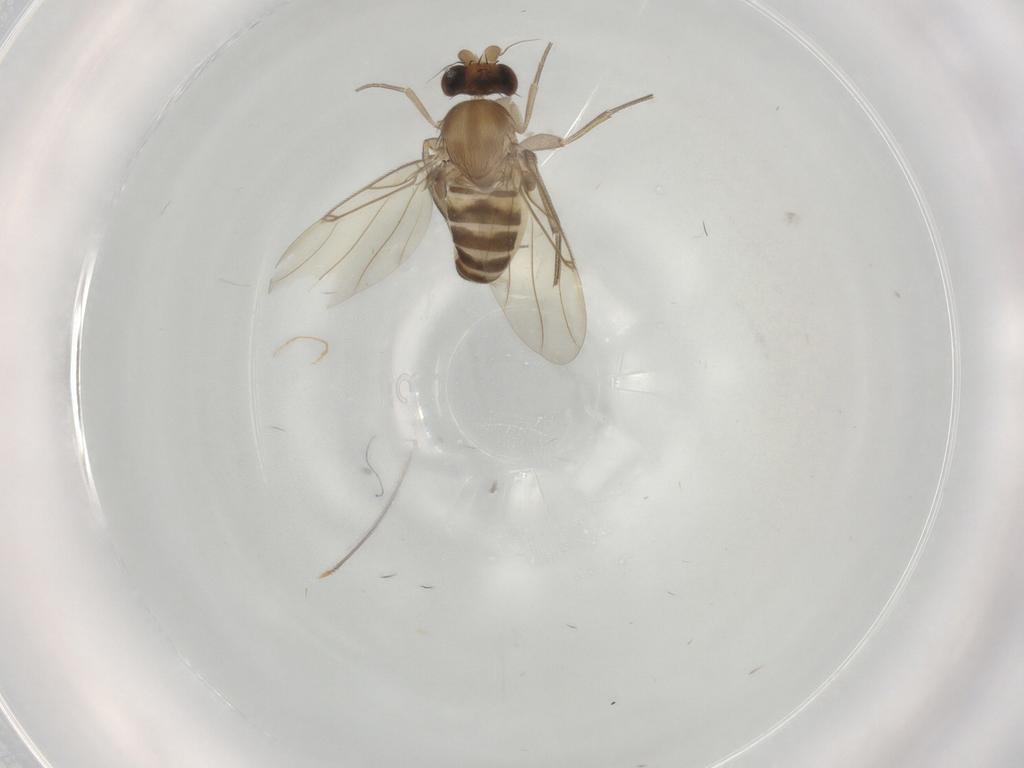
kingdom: Animalia
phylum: Arthropoda
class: Insecta
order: Diptera
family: Phoridae
